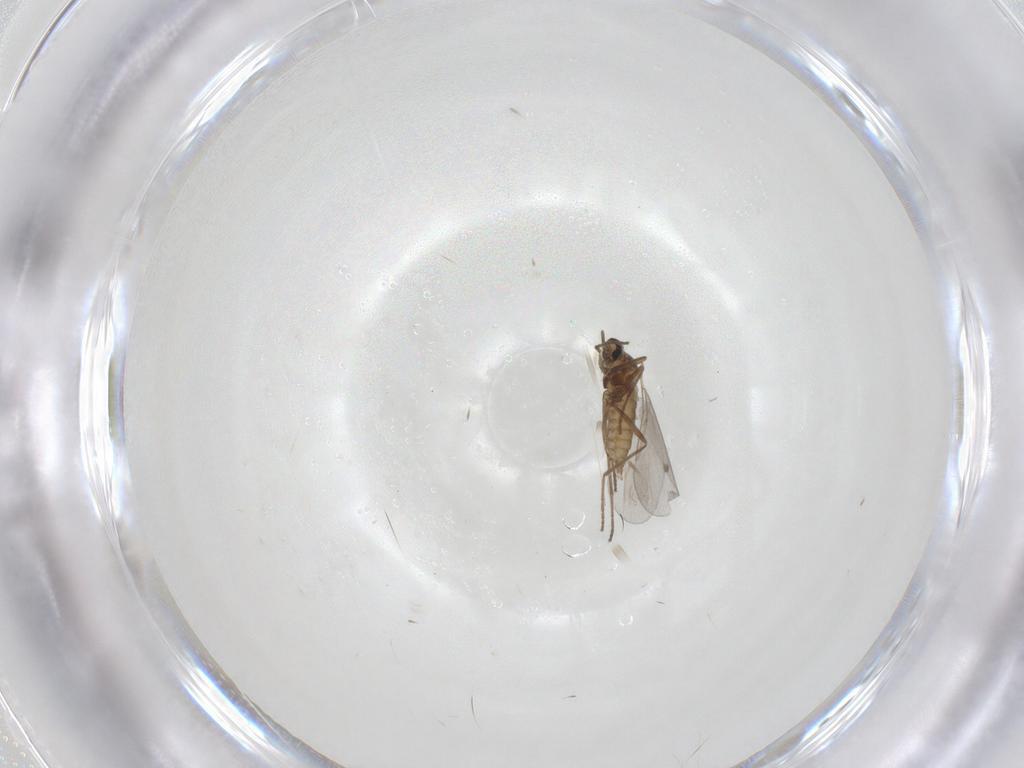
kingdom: Animalia
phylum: Arthropoda
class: Insecta
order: Diptera
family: Cecidomyiidae
